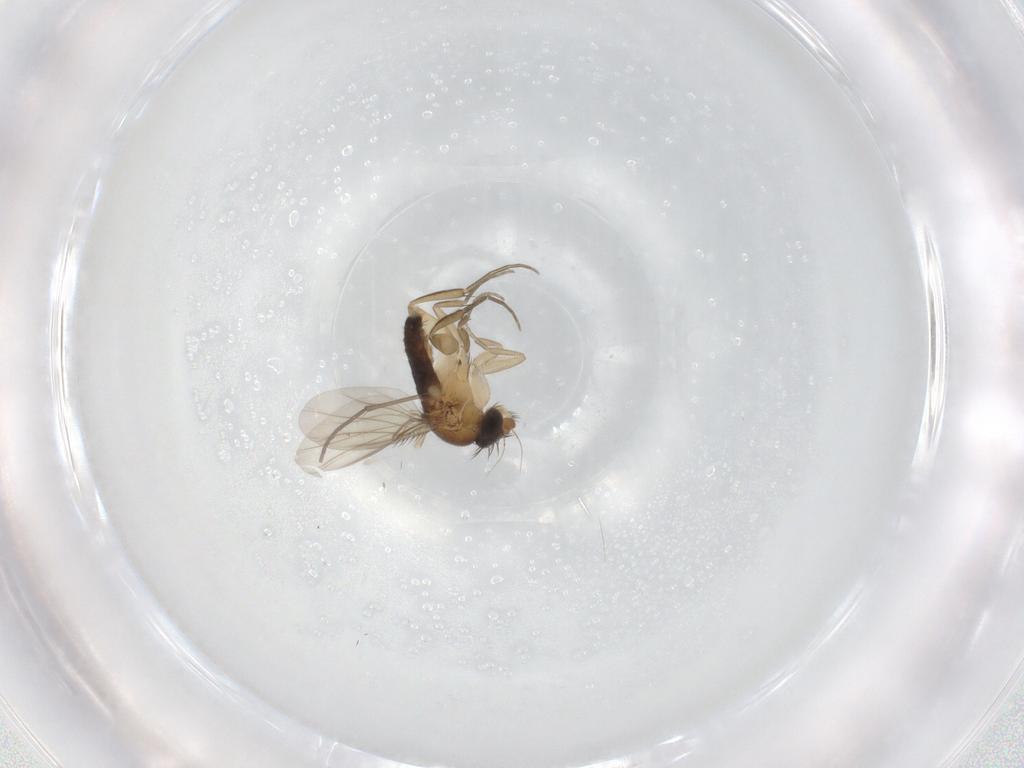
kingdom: Animalia
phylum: Arthropoda
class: Insecta
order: Diptera
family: Phoridae
